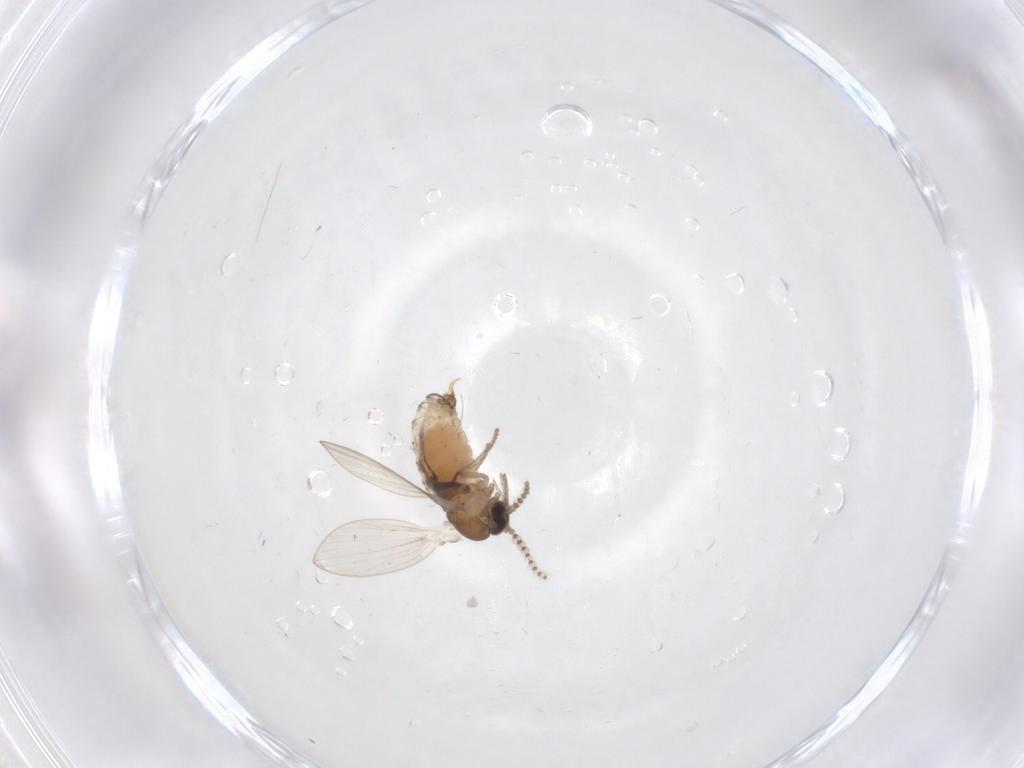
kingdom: Animalia
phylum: Arthropoda
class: Insecta
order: Diptera
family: Psychodidae
